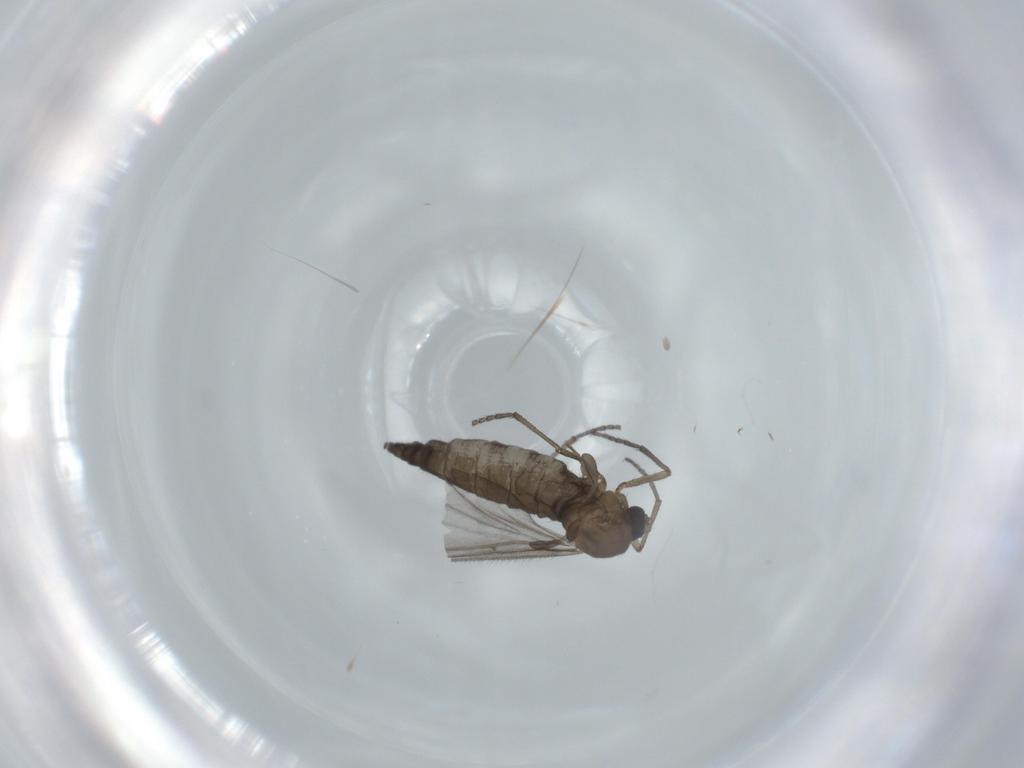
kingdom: Animalia
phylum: Arthropoda
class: Insecta
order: Diptera
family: Sciaridae
